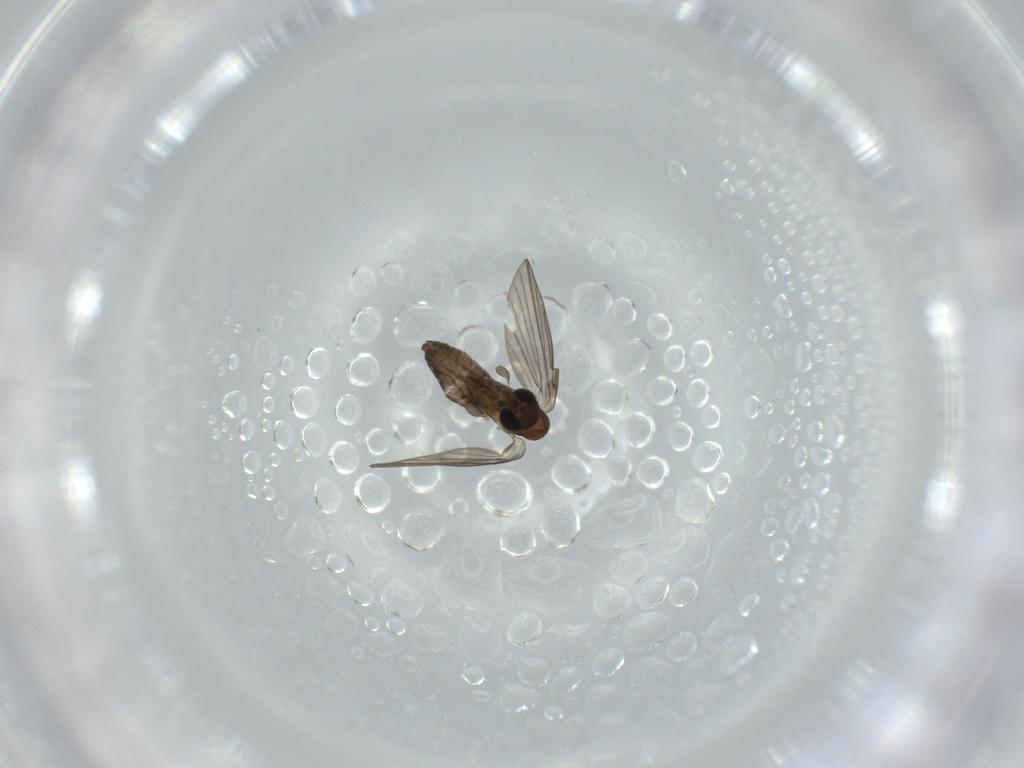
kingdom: Animalia
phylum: Arthropoda
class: Insecta
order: Diptera
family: Psychodidae
